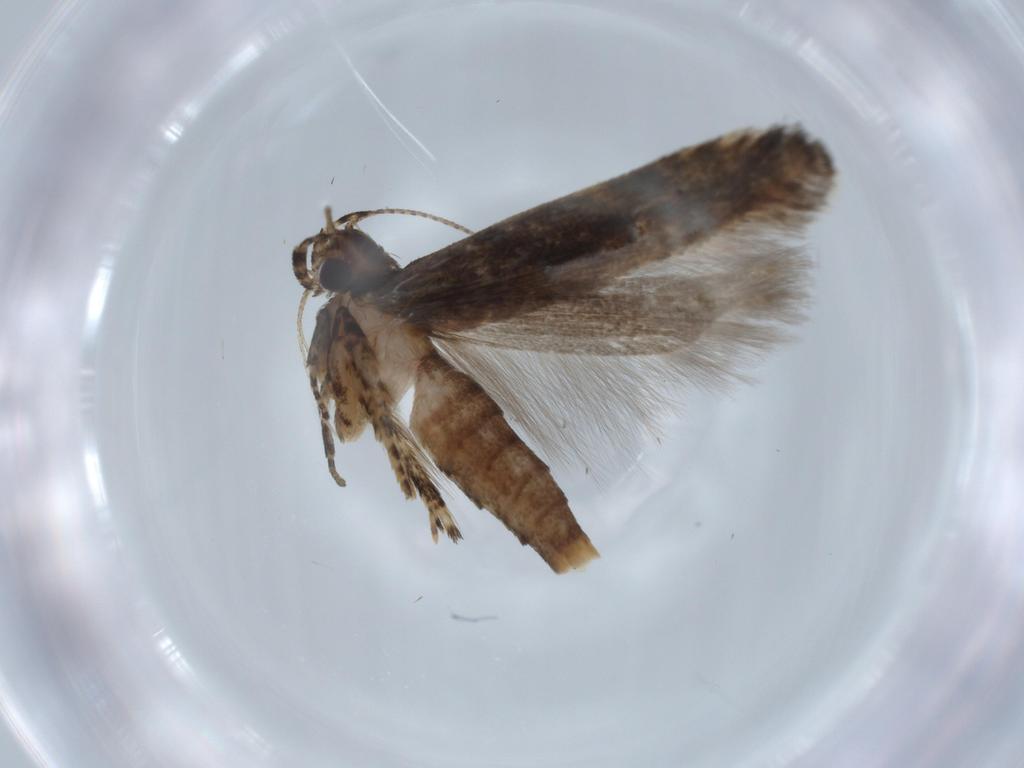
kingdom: Animalia
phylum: Arthropoda
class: Insecta
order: Lepidoptera
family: Gelechiidae
